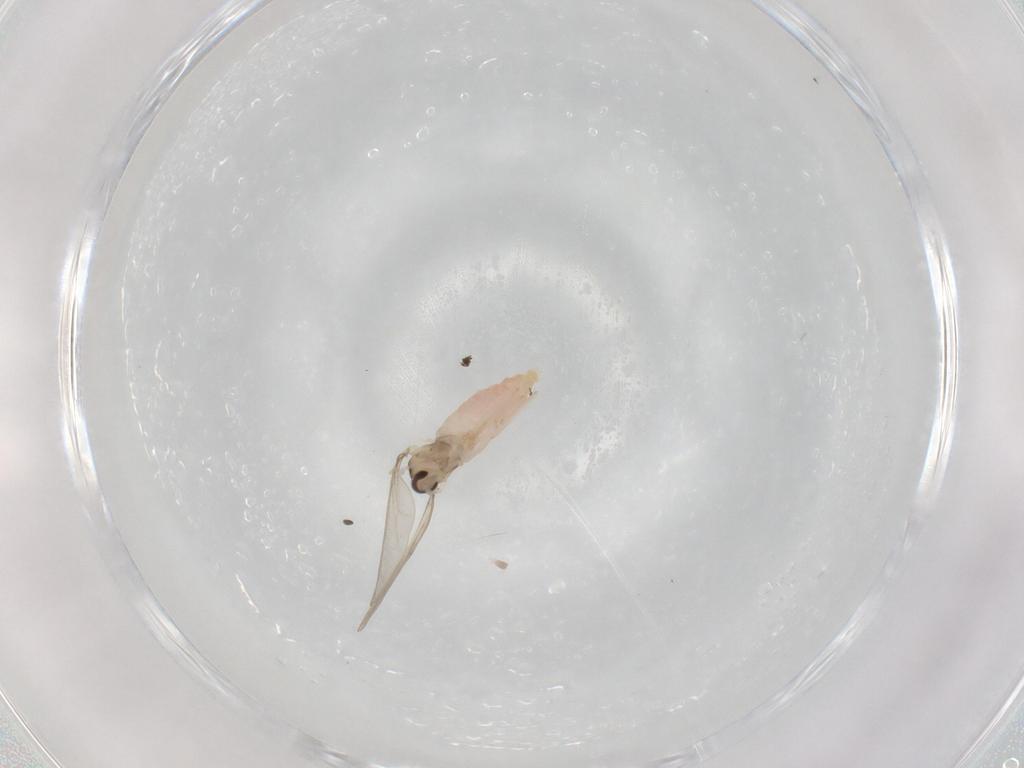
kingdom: Animalia
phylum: Arthropoda
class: Insecta
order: Diptera
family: Cecidomyiidae
